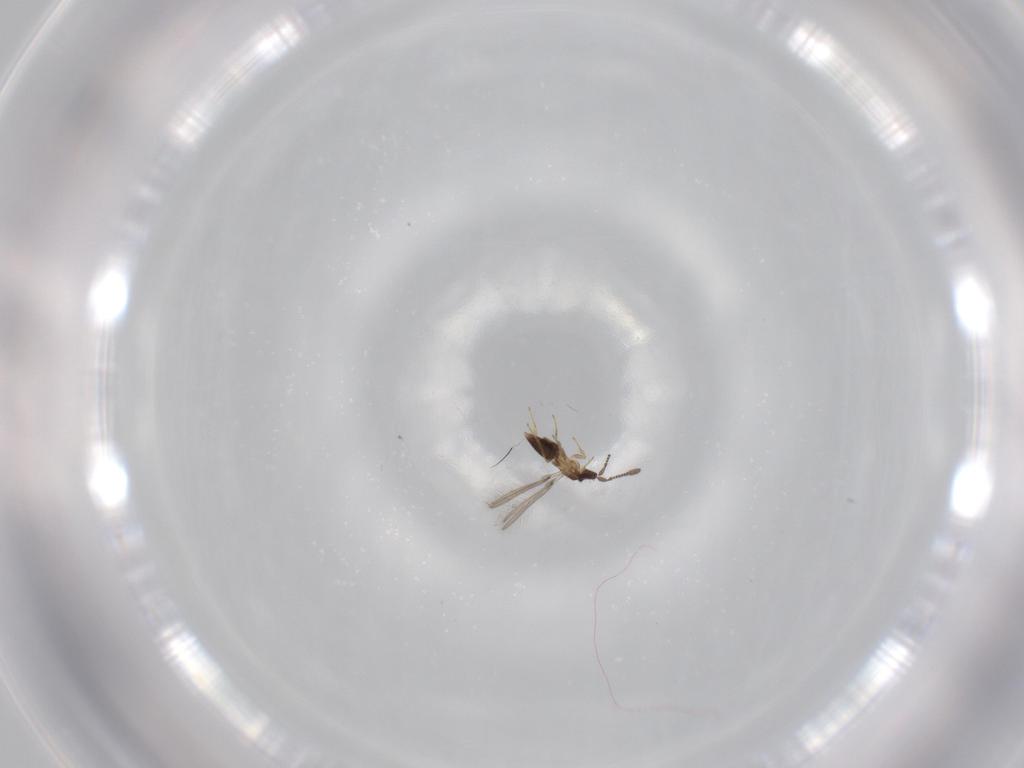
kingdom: Animalia
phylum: Arthropoda
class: Insecta
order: Hymenoptera
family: Mymaridae
